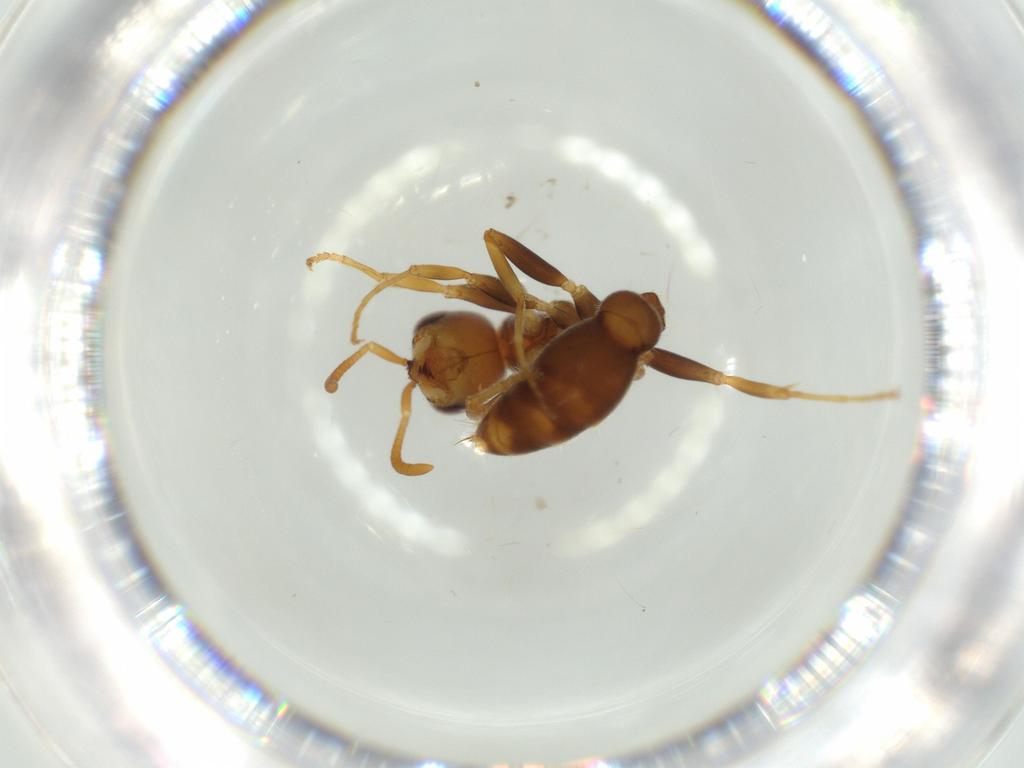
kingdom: Animalia
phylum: Arthropoda
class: Insecta
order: Hymenoptera
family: Formicidae
